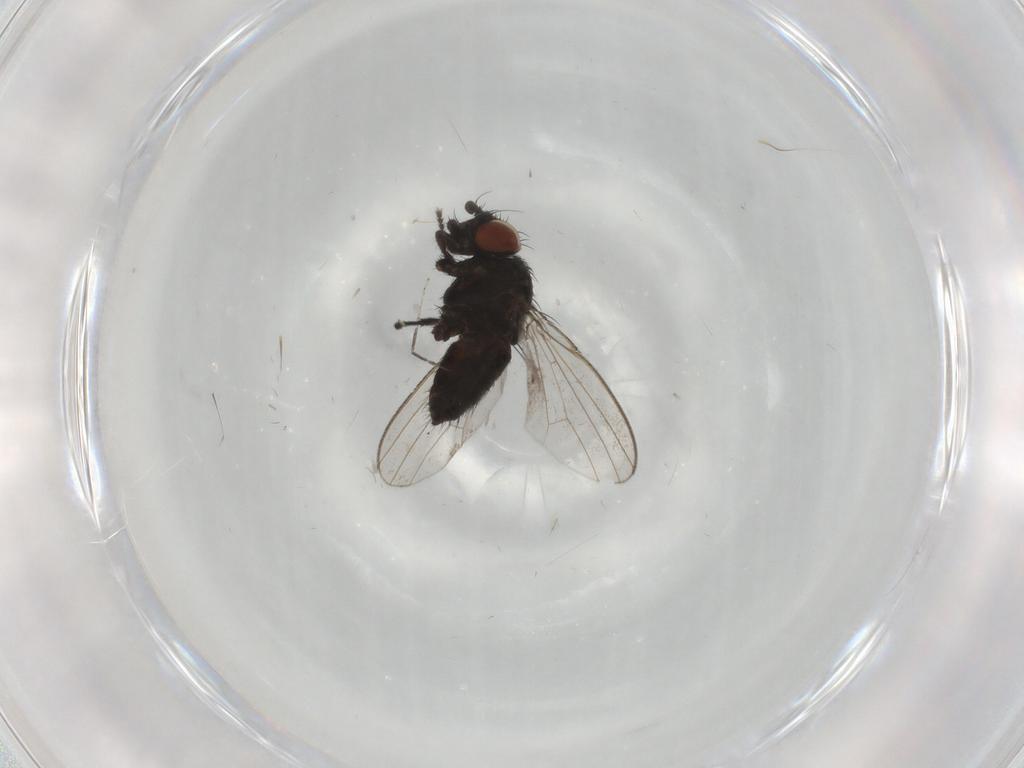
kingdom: Animalia
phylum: Arthropoda
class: Insecta
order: Diptera
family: Milichiidae
